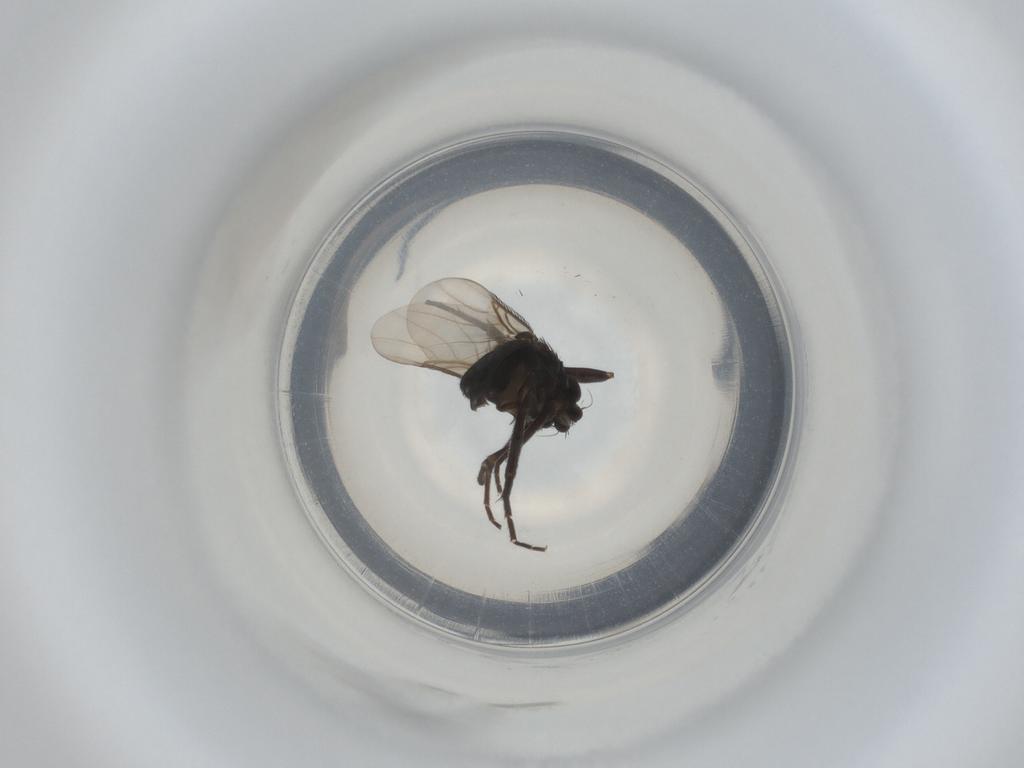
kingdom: Animalia
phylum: Arthropoda
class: Insecta
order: Diptera
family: Phoridae
